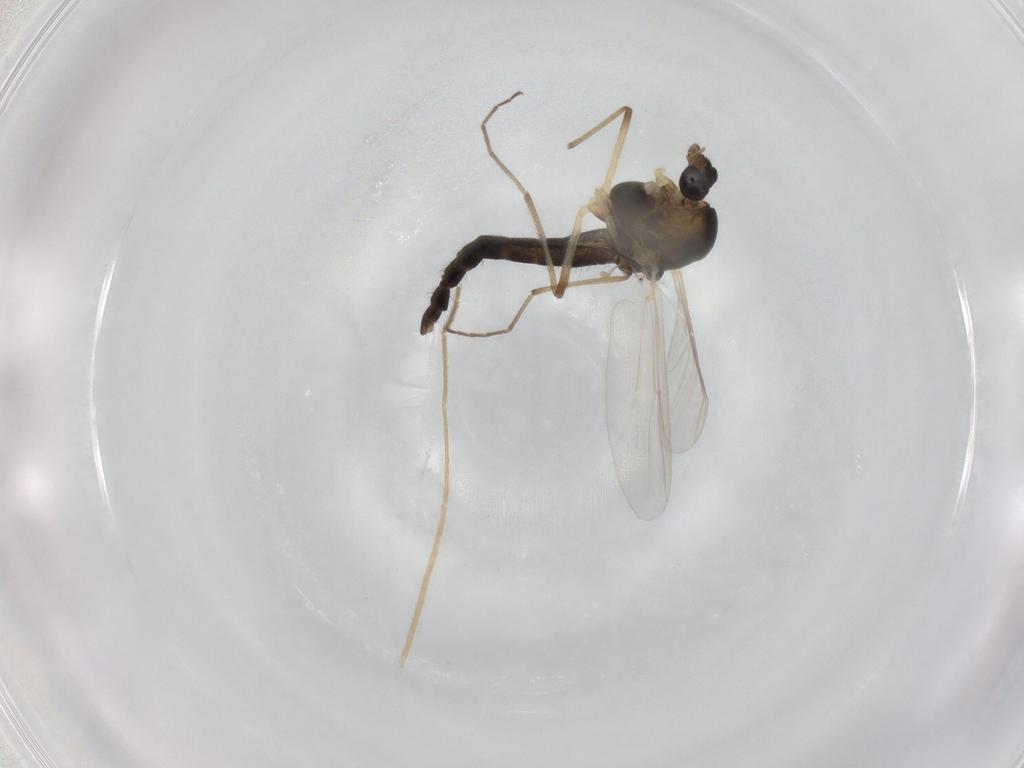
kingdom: Animalia
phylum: Arthropoda
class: Insecta
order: Diptera
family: Chironomidae
